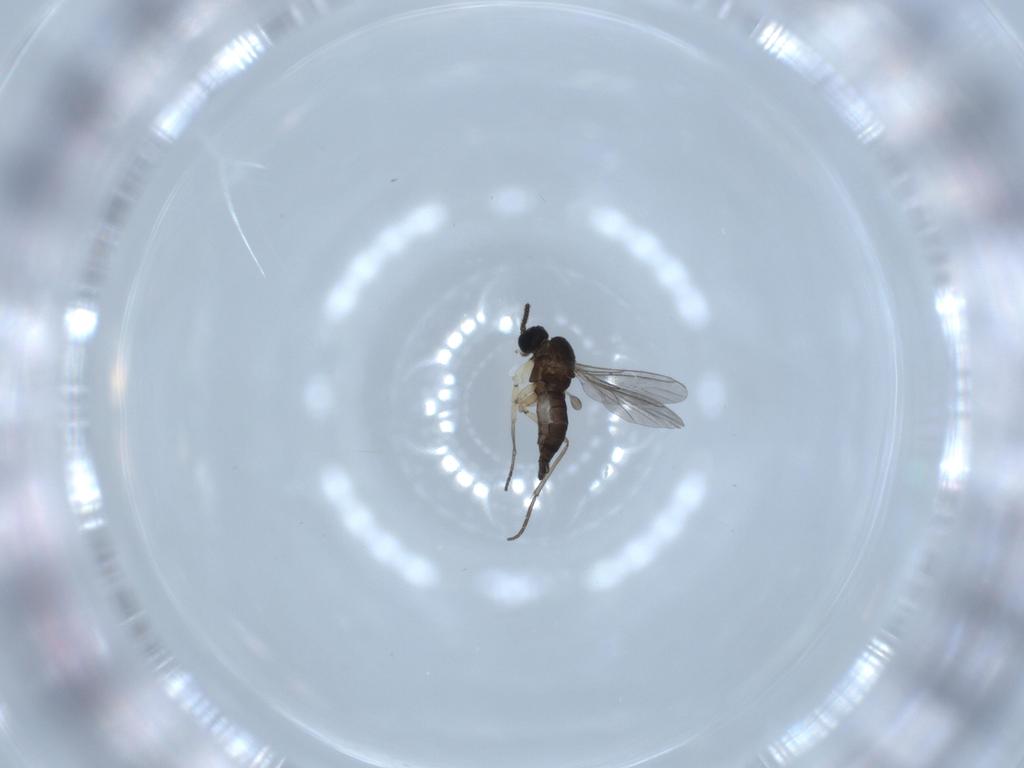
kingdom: Animalia
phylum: Arthropoda
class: Insecta
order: Diptera
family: Sciaridae
